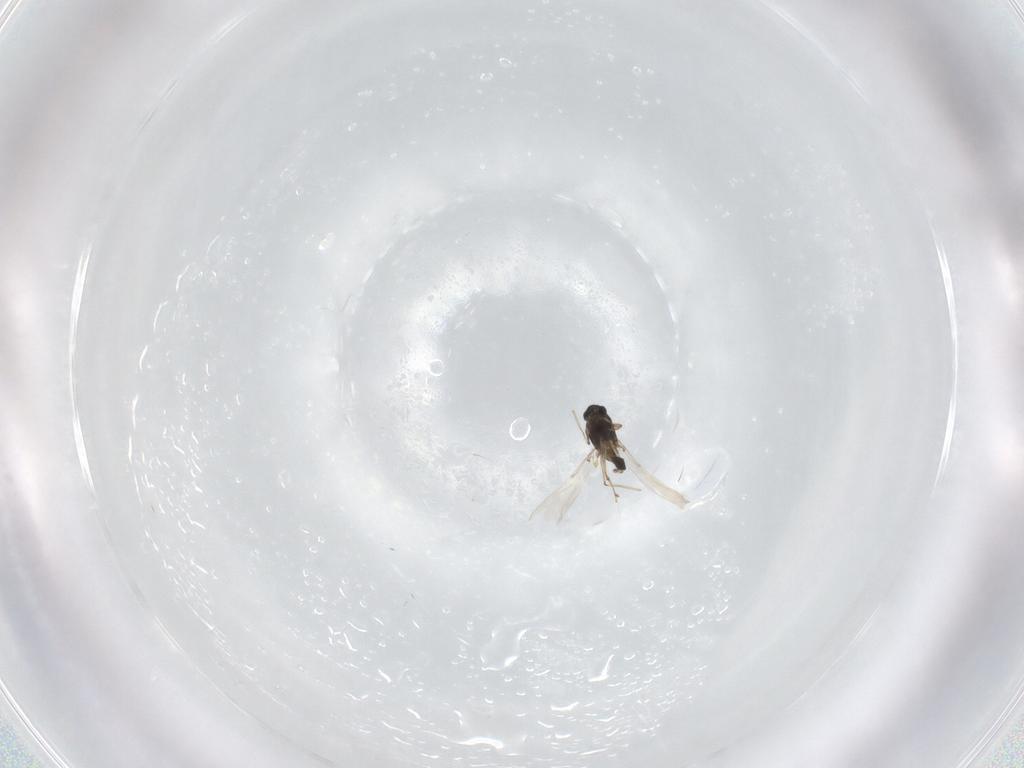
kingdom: Animalia
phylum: Arthropoda
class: Insecta
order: Diptera
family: Chironomidae
